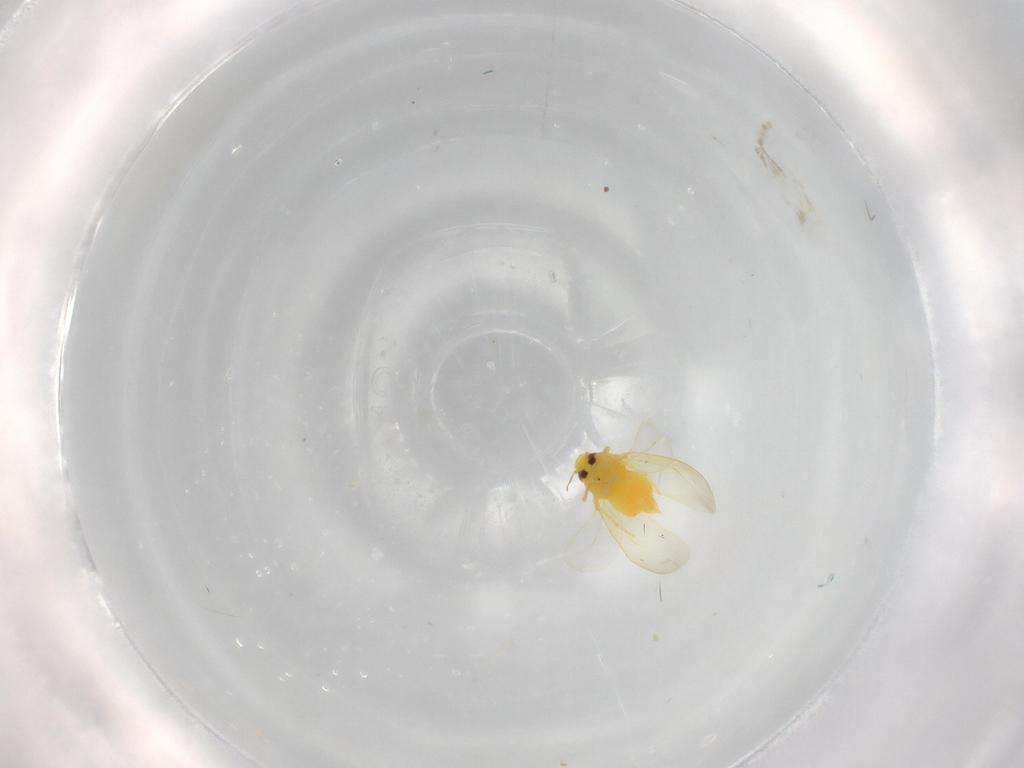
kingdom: Animalia
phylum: Arthropoda
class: Insecta
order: Hemiptera
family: Aleyrodidae
